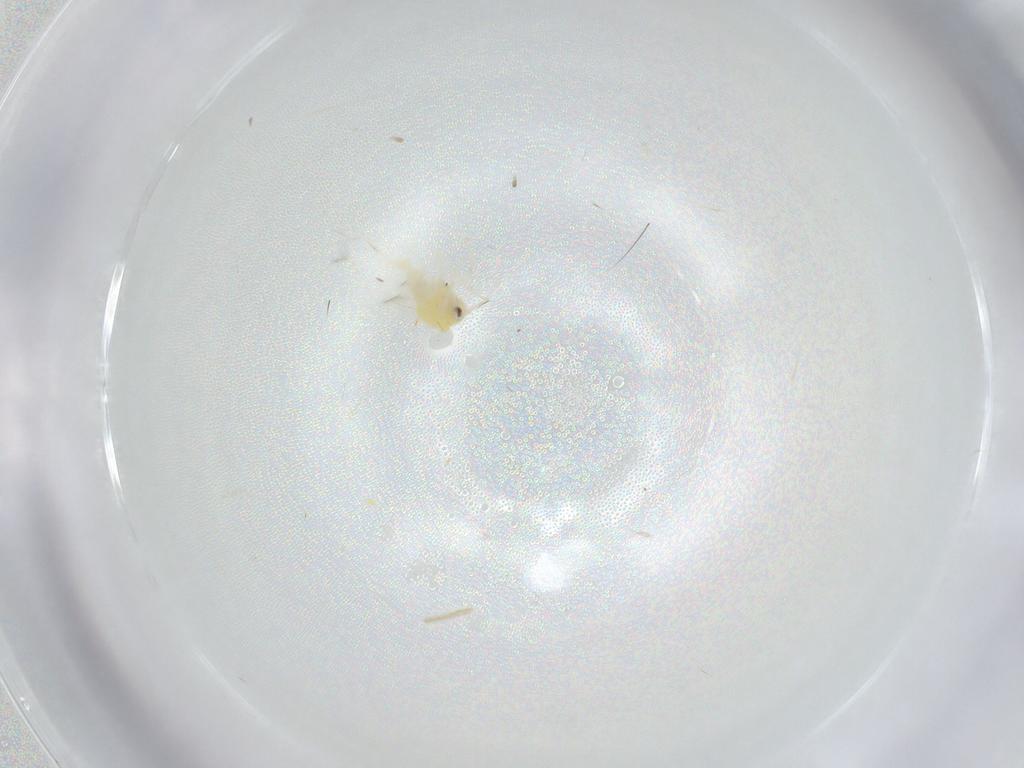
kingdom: Animalia
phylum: Arthropoda
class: Insecta
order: Hemiptera
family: Aleyrodidae
